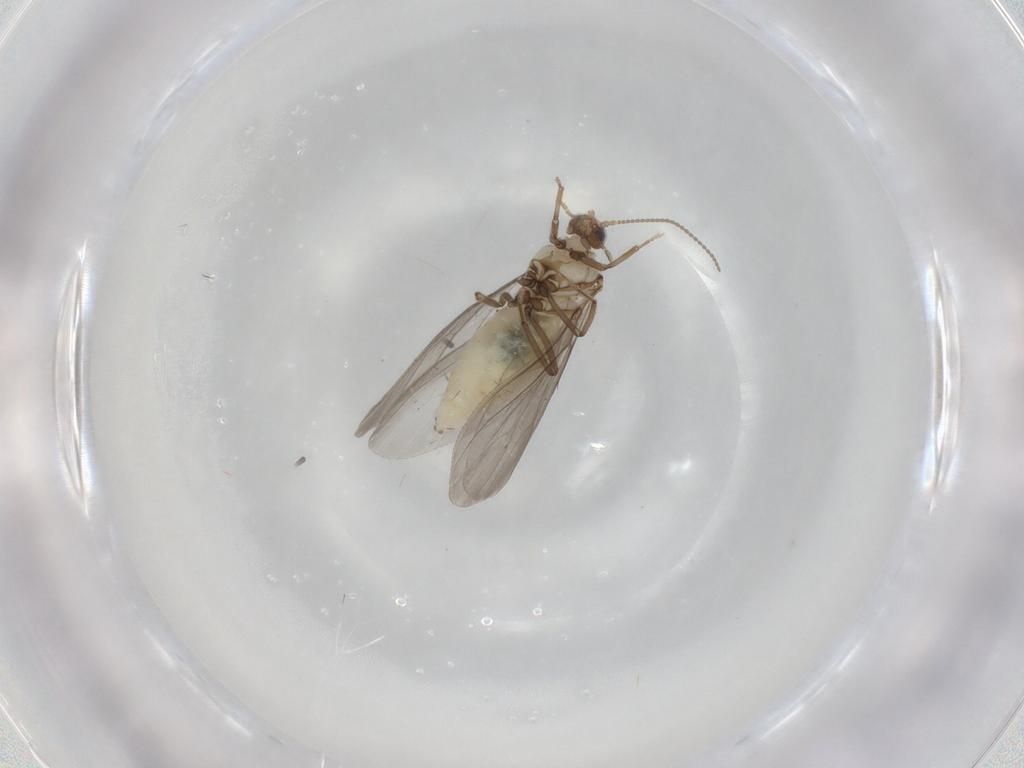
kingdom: Animalia
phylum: Arthropoda
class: Insecta
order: Neuroptera
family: Coniopterygidae
